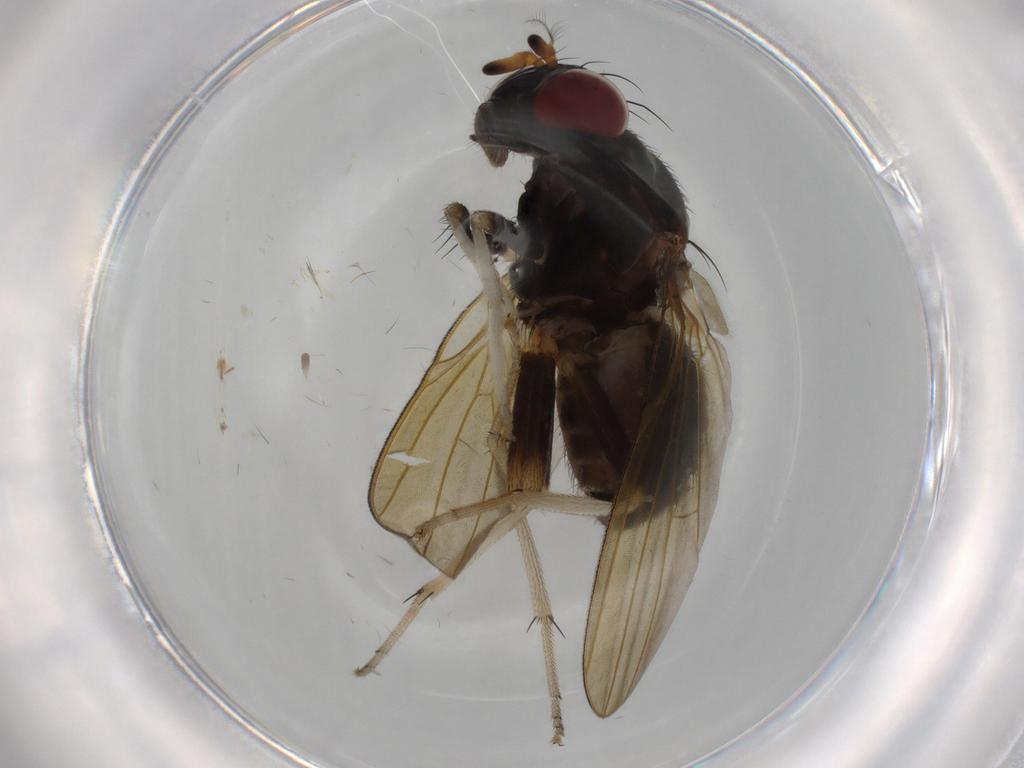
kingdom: Animalia
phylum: Arthropoda
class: Insecta
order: Diptera
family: Lauxaniidae
